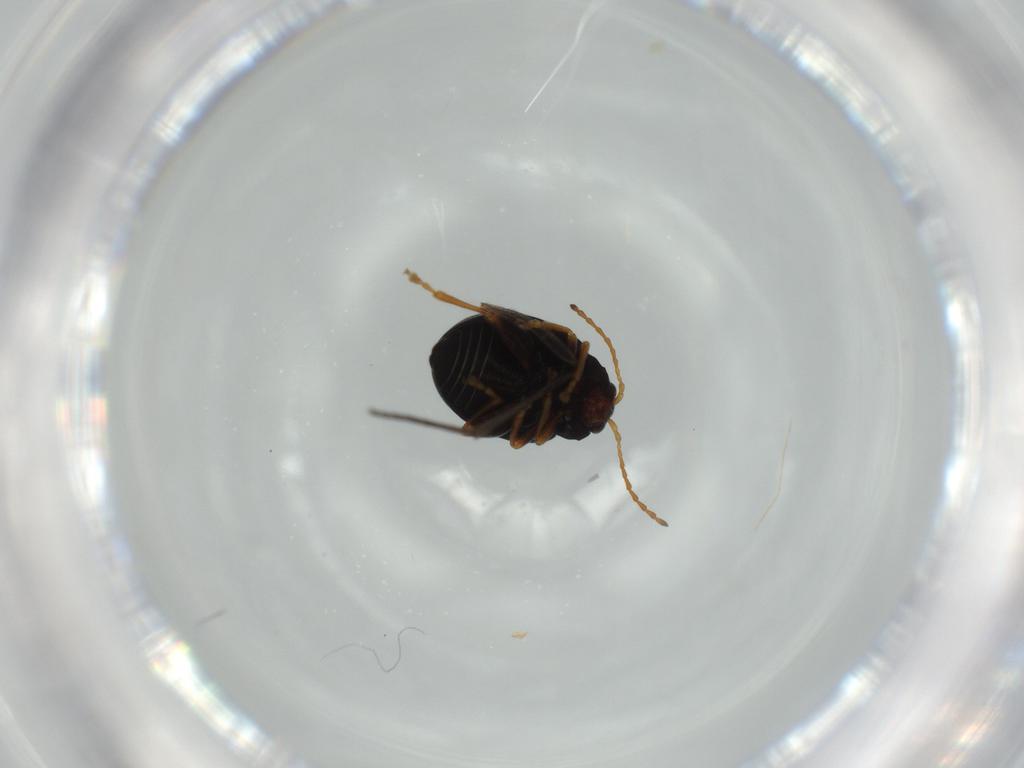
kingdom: Animalia
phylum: Arthropoda
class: Insecta
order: Coleoptera
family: Chrysomelidae
